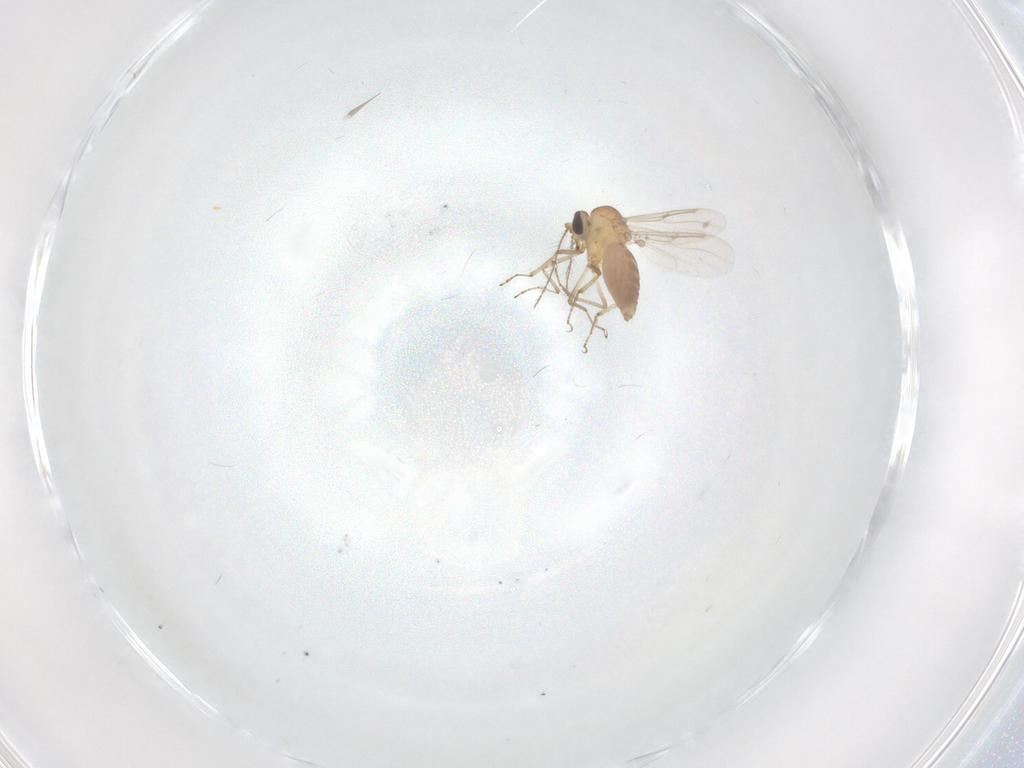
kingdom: Animalia
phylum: Arthropoda
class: Insecta
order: Diptera
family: Ceratopogonidae
